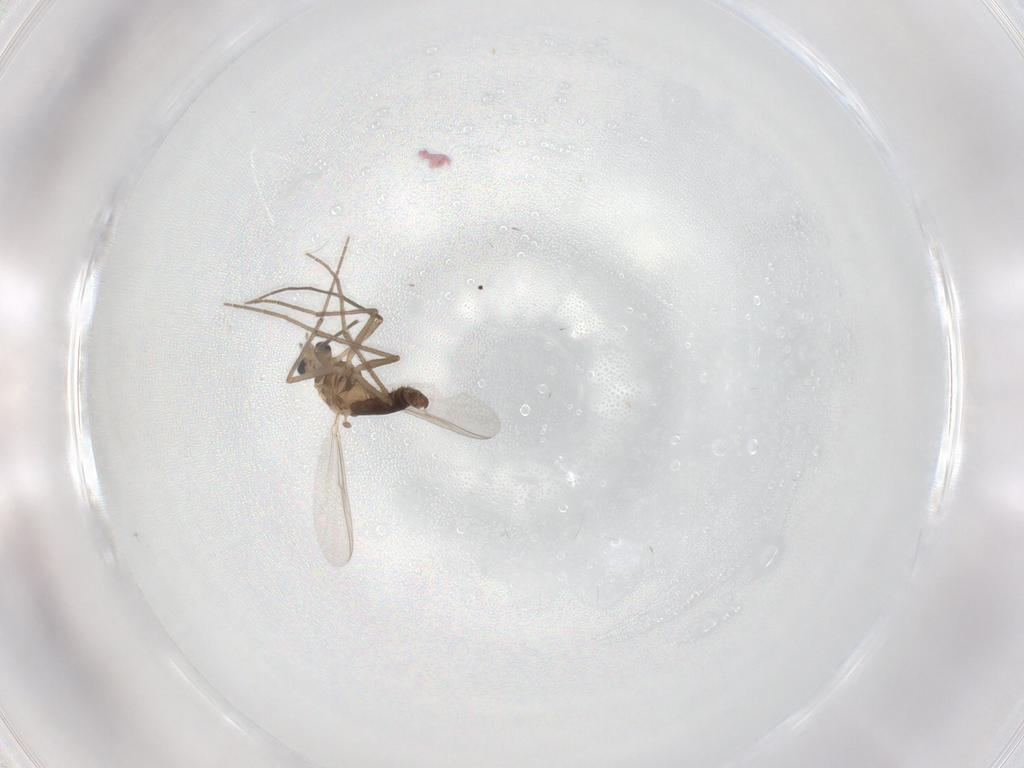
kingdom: Animalia
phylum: Arthropoda
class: Insecta
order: Diptera
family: Chironomidae
